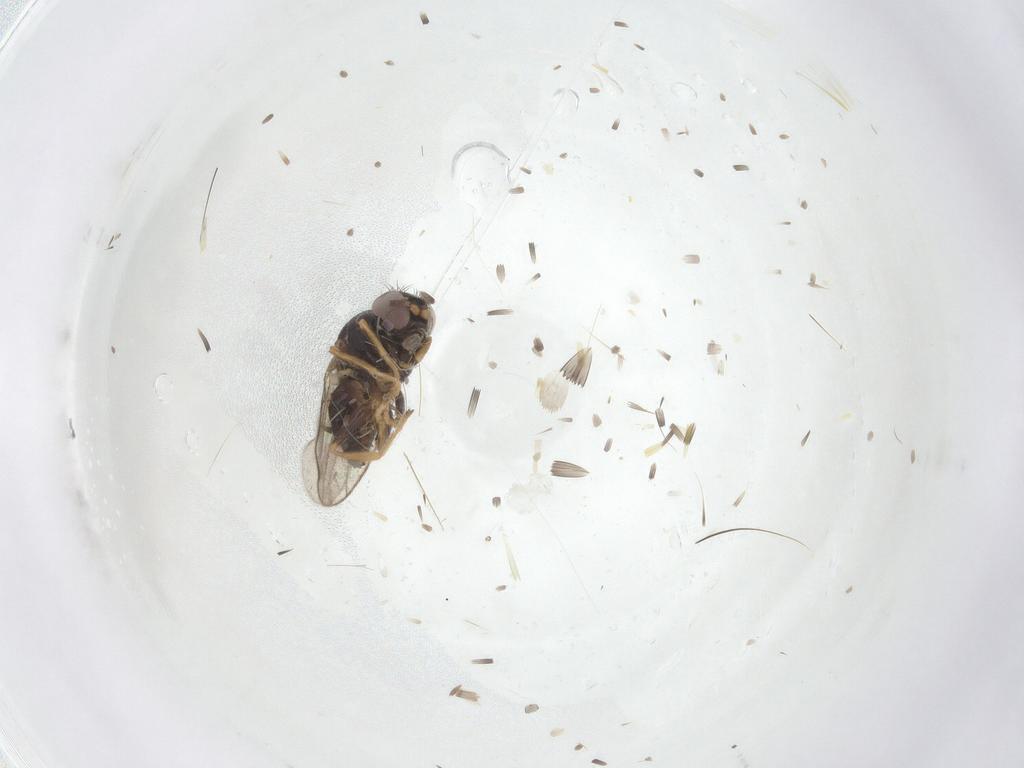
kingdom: Animalia
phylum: Arthropoda
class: Insecta
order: Diptera
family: Chloropidae
